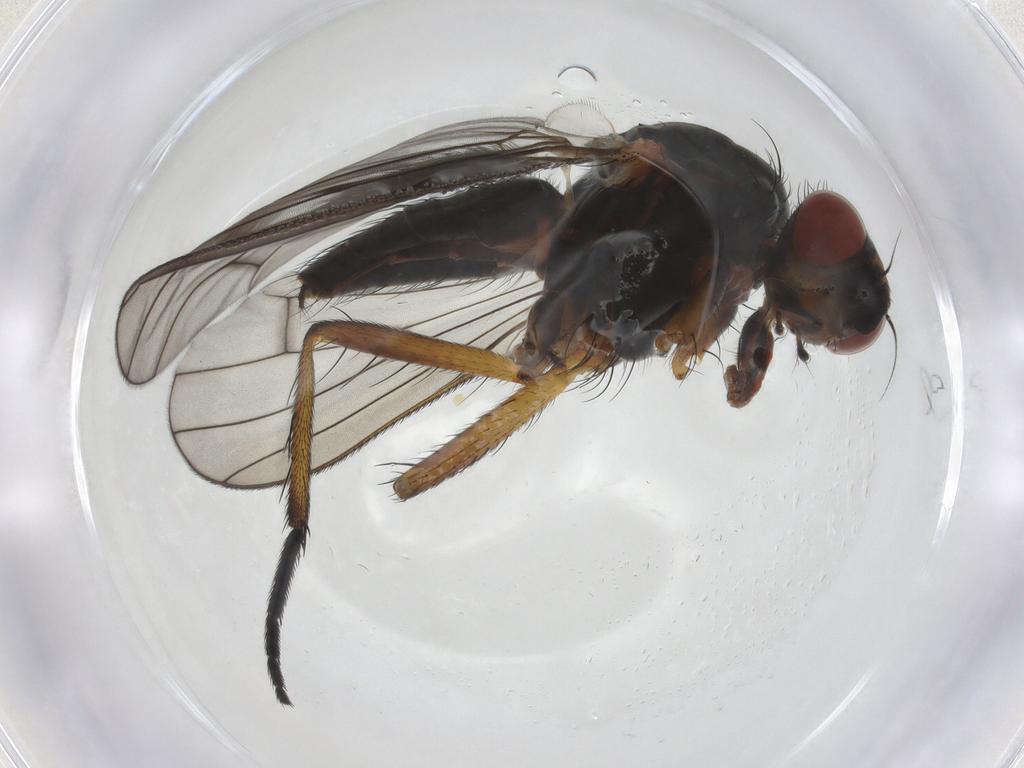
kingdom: Animalia
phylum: Arthropoda
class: Insecta
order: Diptera
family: Anthomyiidae
